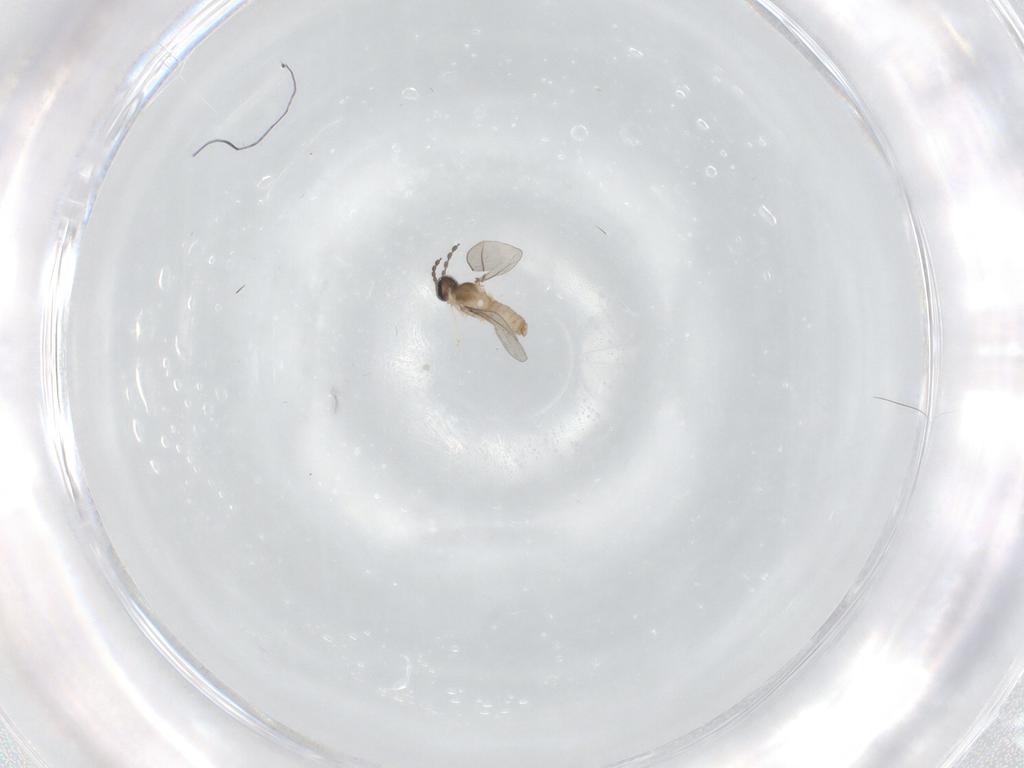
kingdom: Animalia
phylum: Arthropoda
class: Insecta
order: Diptera
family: Cecidomyiidae
